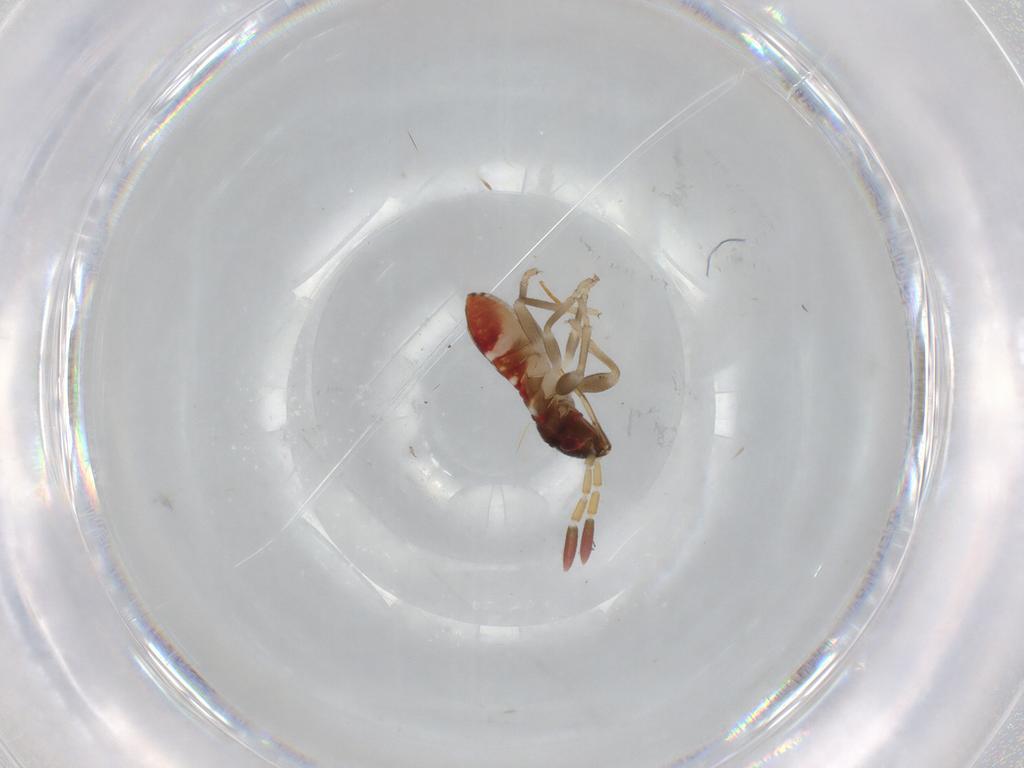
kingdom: Animalia
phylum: Arthropoda
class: Insecta
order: Hemiptera
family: Rhyparochromidae
